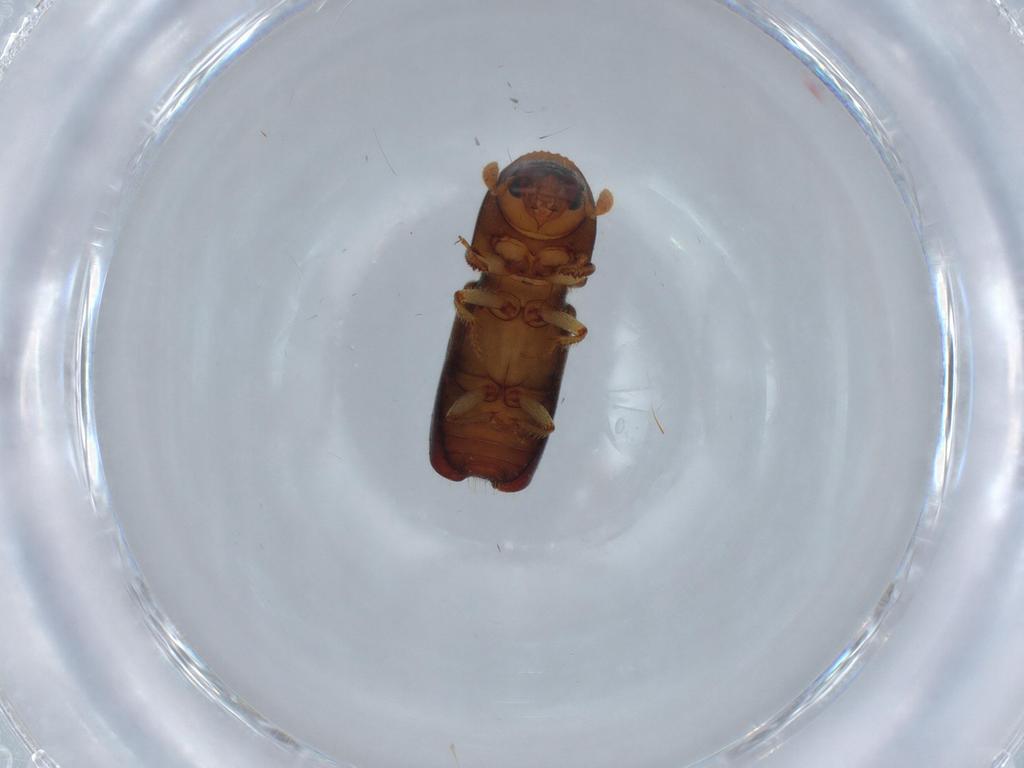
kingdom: Animalia
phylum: Arthropoda
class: Insecta
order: Coleoptera
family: Curculionidae
